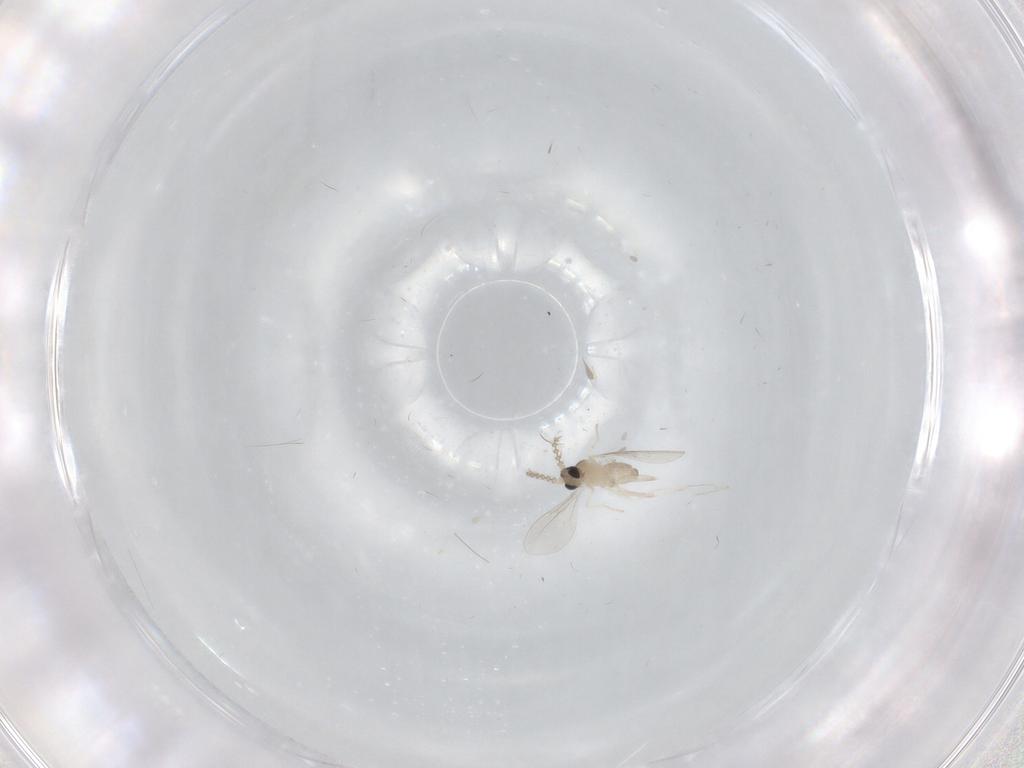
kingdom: Animalia
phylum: Arthropoda
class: Insecta
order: Diptera
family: Cecidomyiidae
